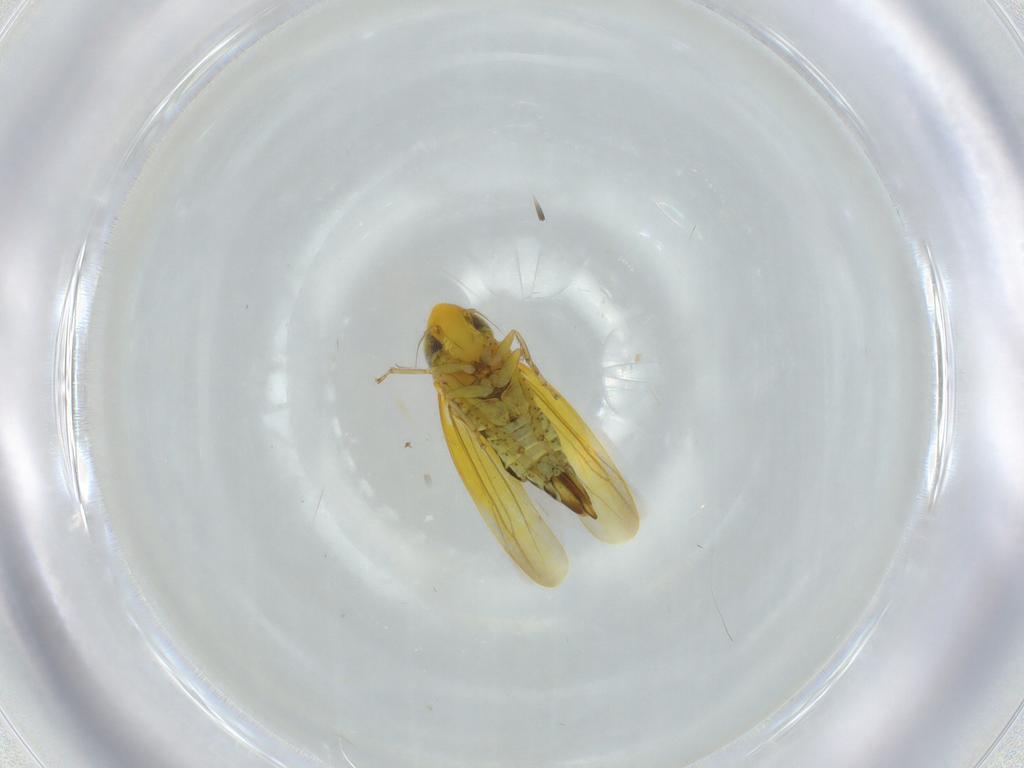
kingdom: Animalia
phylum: Arthropoda
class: Insecta
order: Hemiptera
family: Cicadellidae
